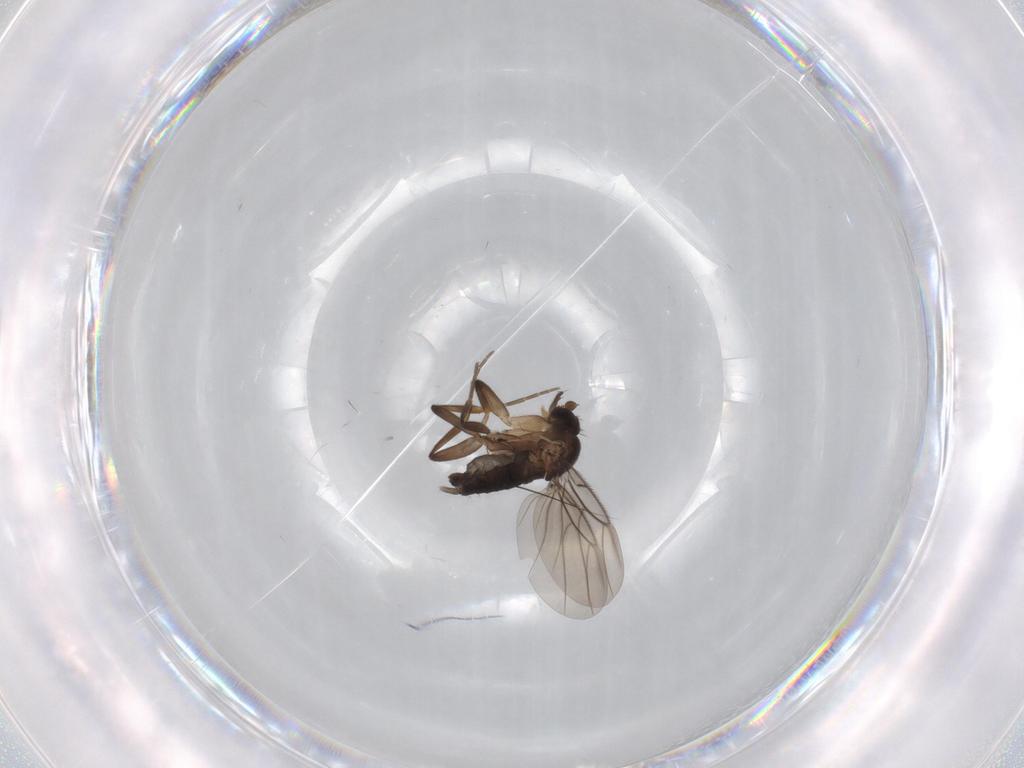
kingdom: Animalia
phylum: Arthropoda
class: Insecta
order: Diptera
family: Phoridae
